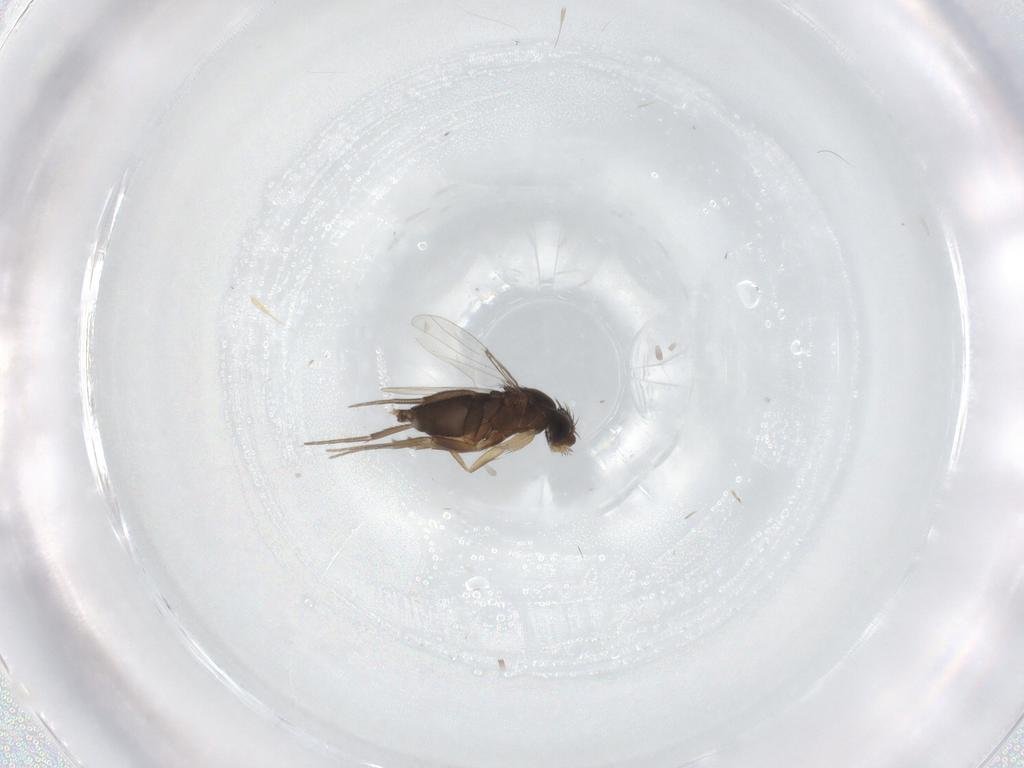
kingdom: Animalia
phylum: Arthropoda
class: Insecta
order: Diptera
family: Phoridae
